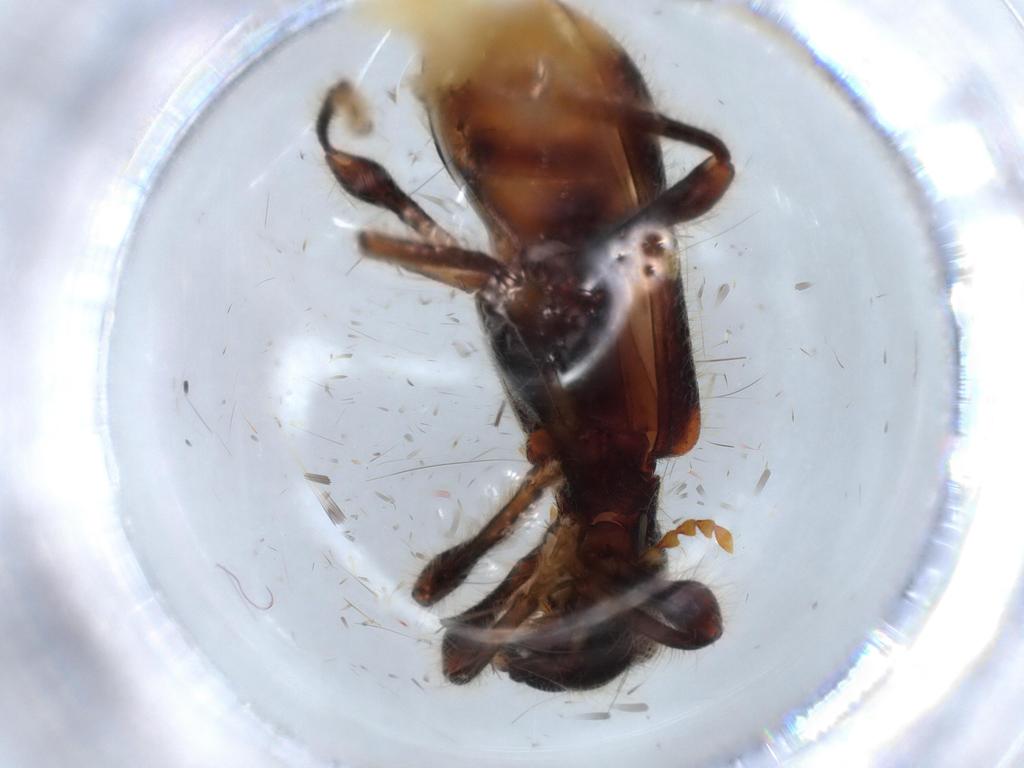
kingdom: Animalia
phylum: Arthropoda
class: Insecta
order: Coleoptera
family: Cleridae
